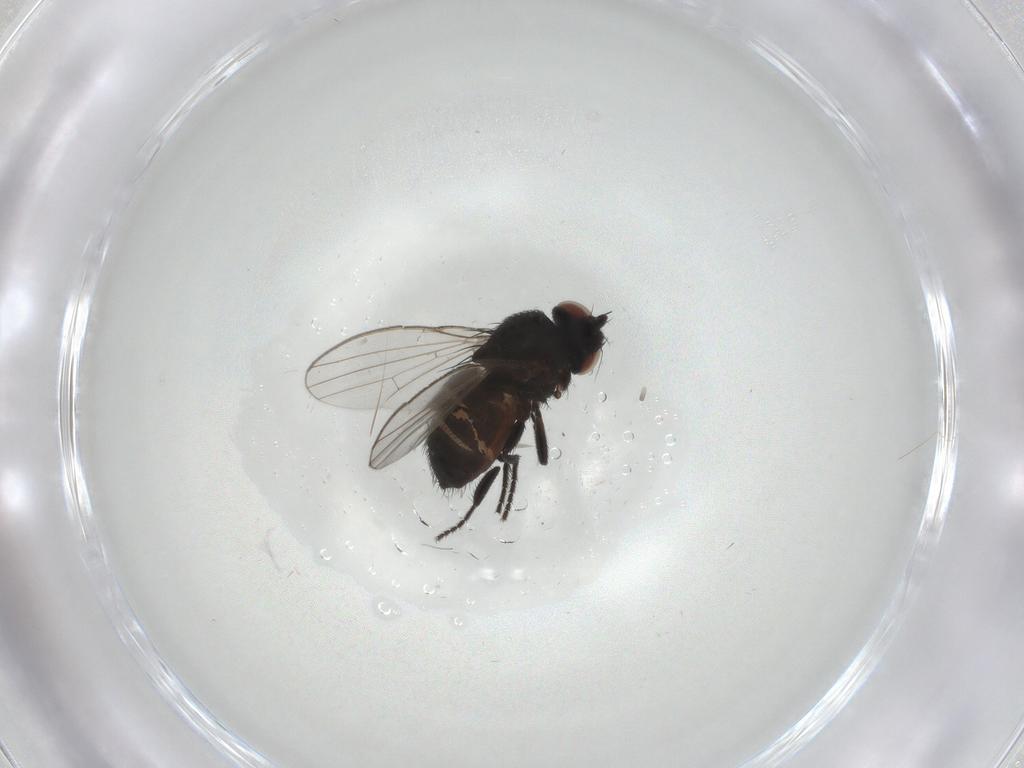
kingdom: Animalia
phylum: Arthropoda
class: Insecta
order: Diptera
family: Milichiidae
